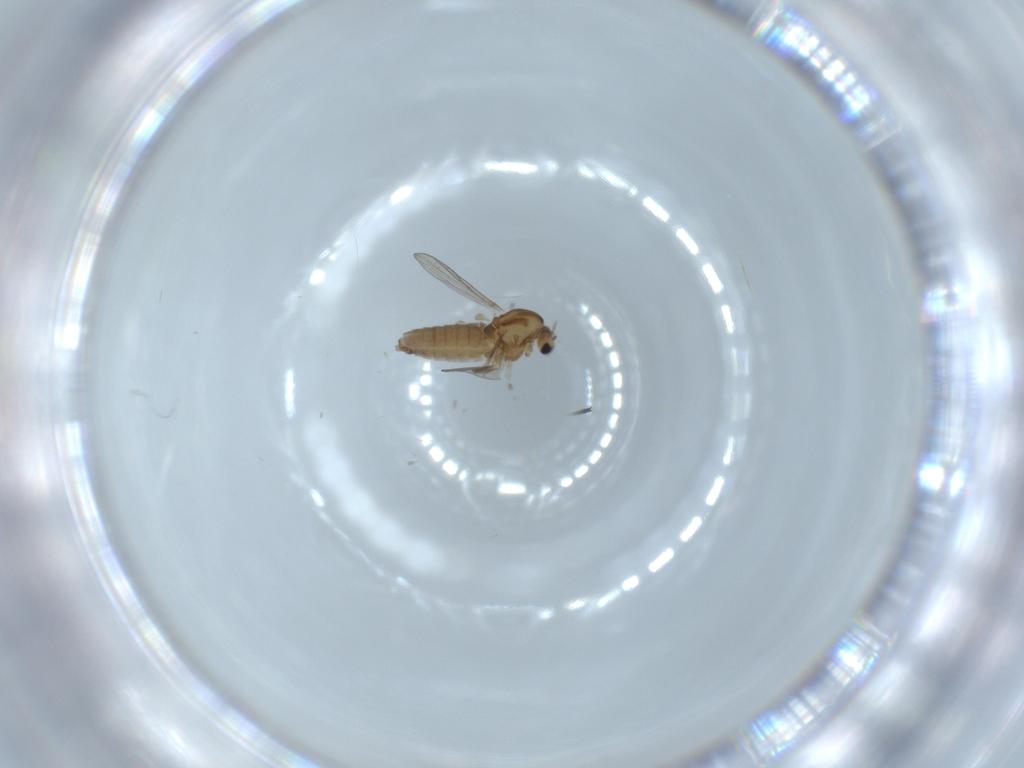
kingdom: Animalia
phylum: Arthropoda
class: Insecta
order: Diptera
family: Chironomidae
